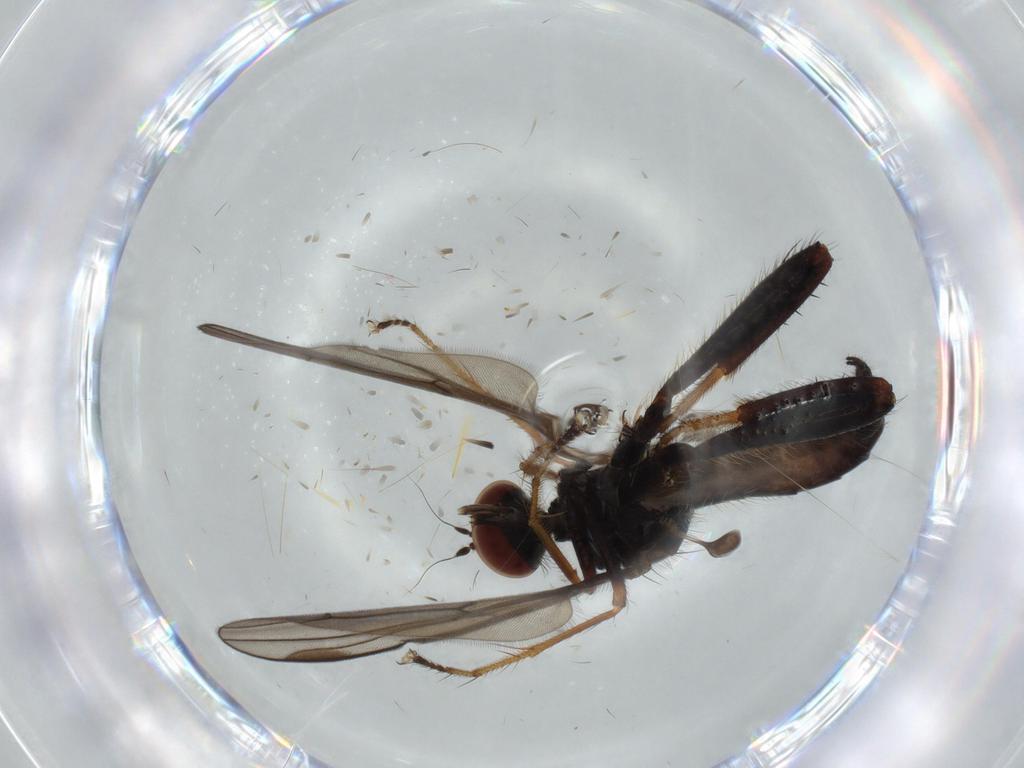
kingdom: Animalia
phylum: Arthropoda
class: Insecta
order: Diptera
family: Hybotidae
